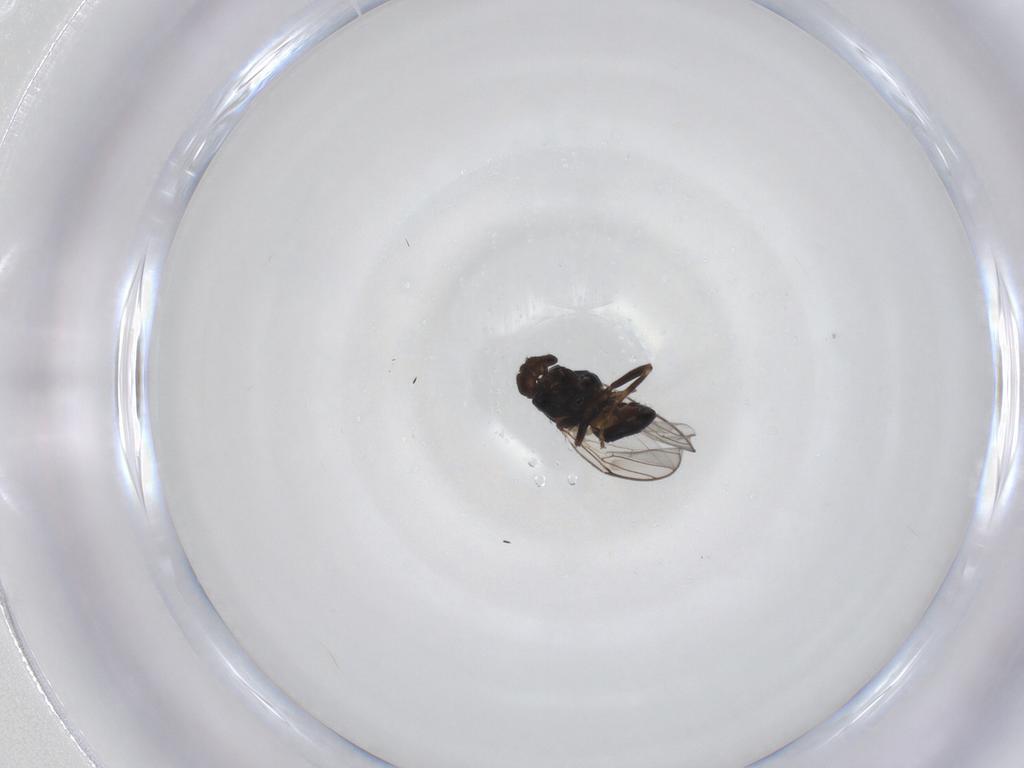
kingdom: Animalia
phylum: Arthropoda
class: Insecta
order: Diptera
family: Chloropidae
